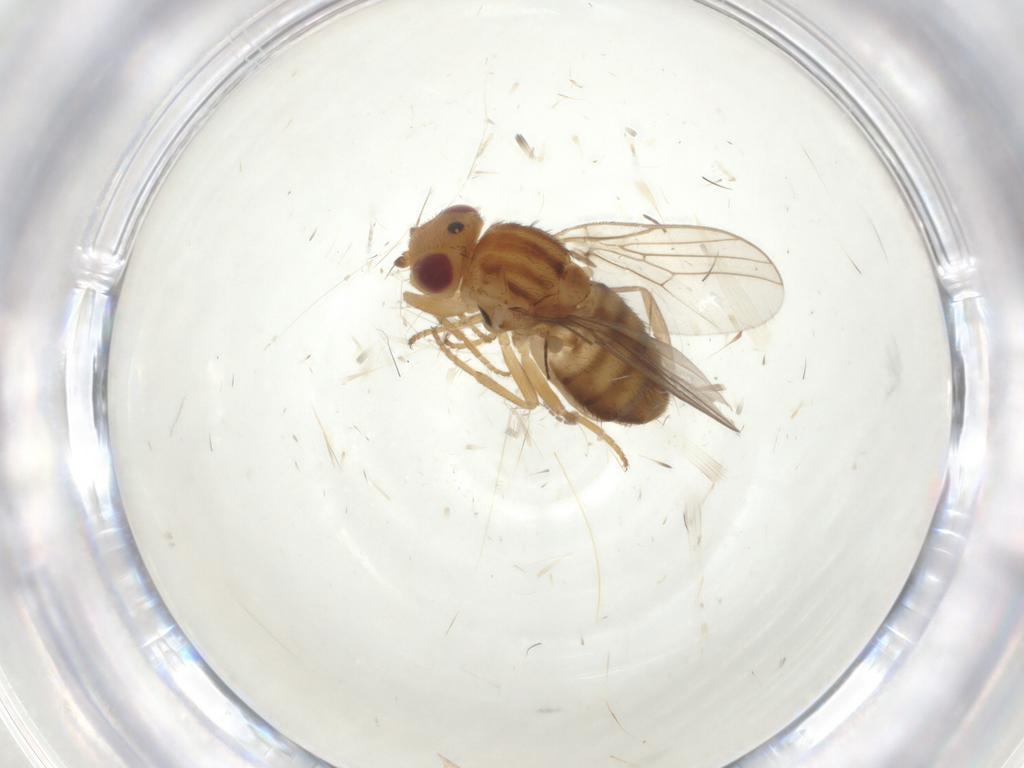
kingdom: Animalia
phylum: Arthropoda
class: Insecta
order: Diptera
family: Chloropidae
